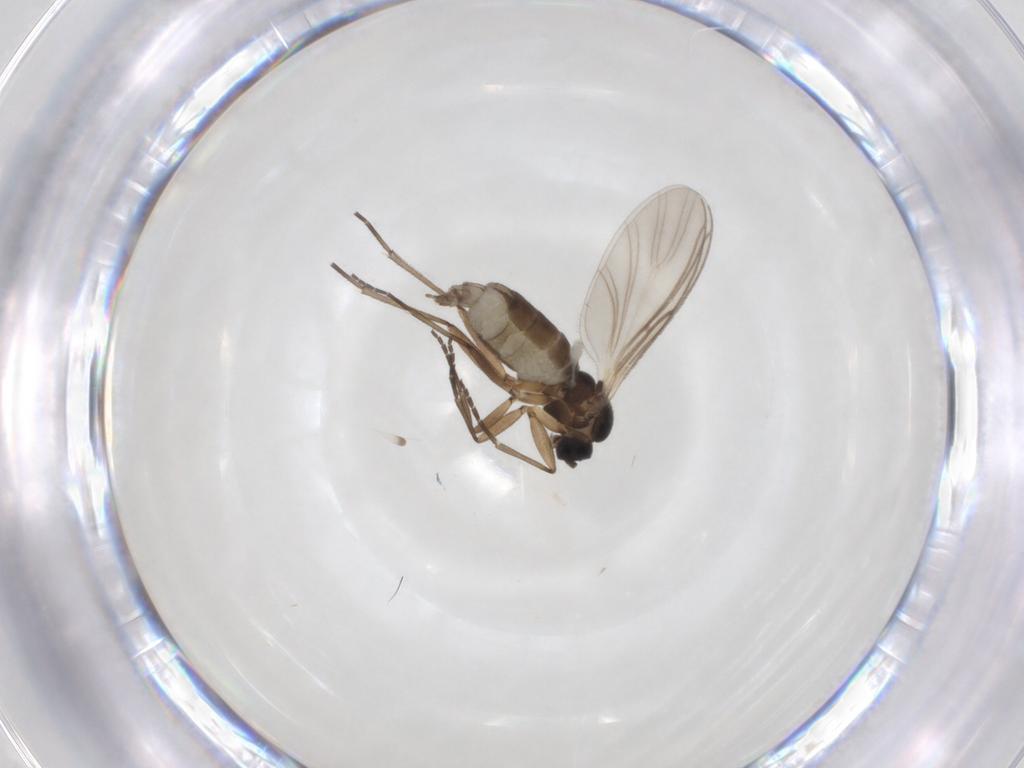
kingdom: Animalia
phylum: Arthropoda
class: Insecta
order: Diptera
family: Chironomidae
